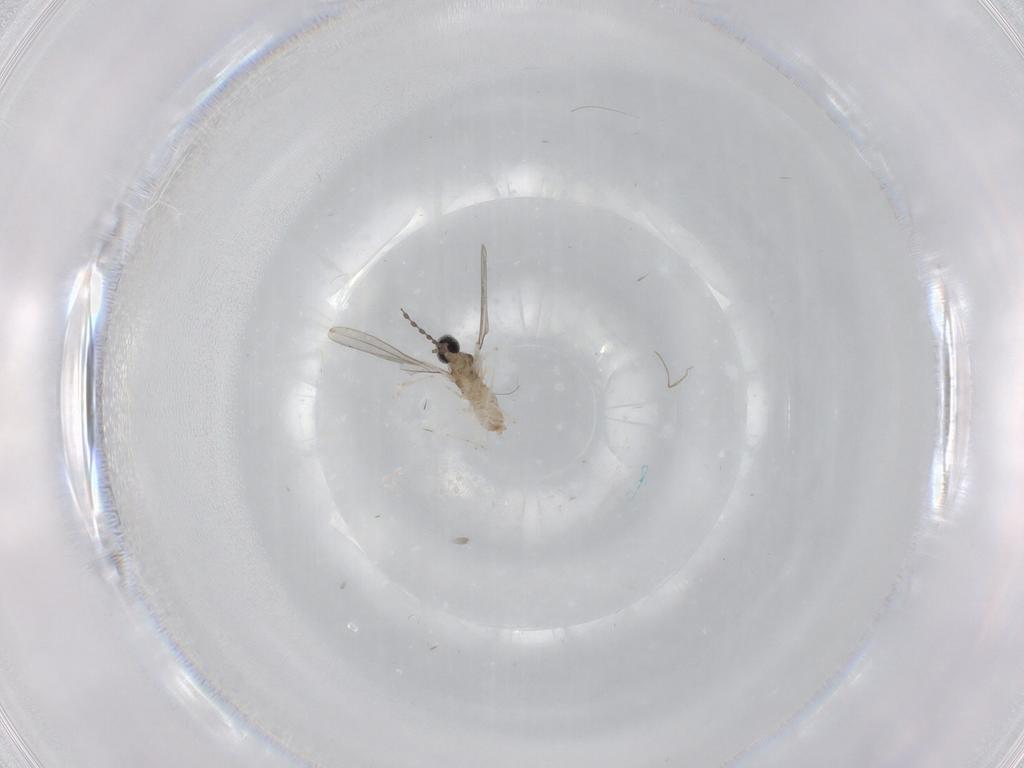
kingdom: Animalia
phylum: Arthropoda
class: Insecta
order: Diptera
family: Cecidomyiidae
